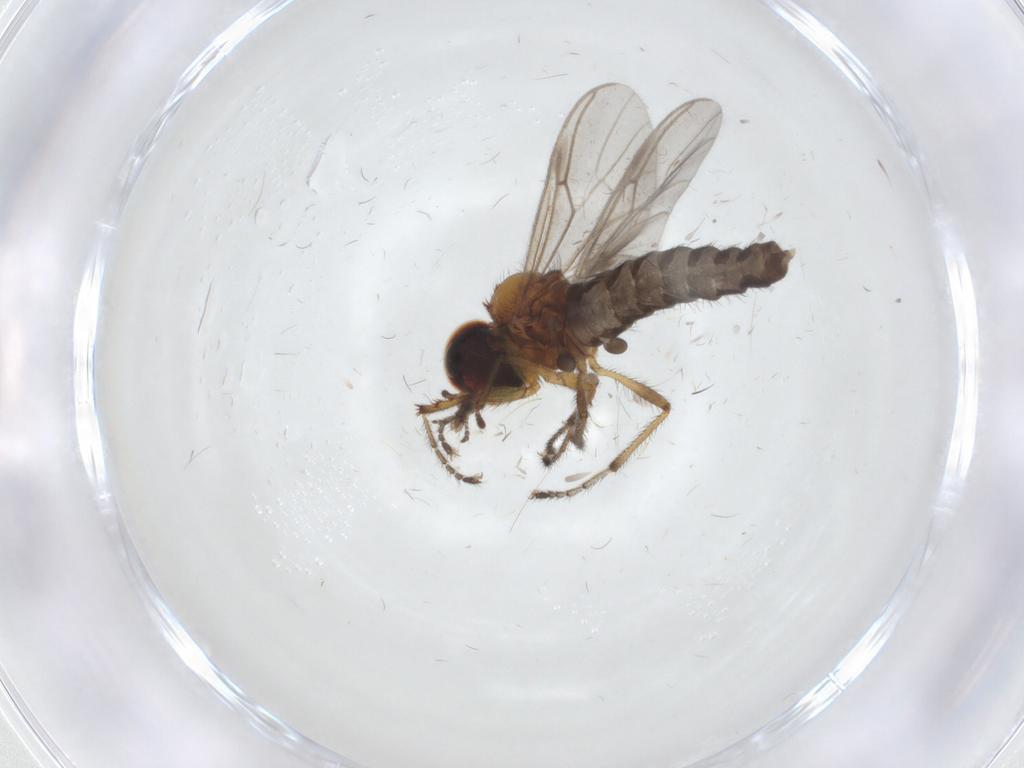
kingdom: Animalia
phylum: Arthropoda
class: Insecta
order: Diptera
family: Bibionidae
